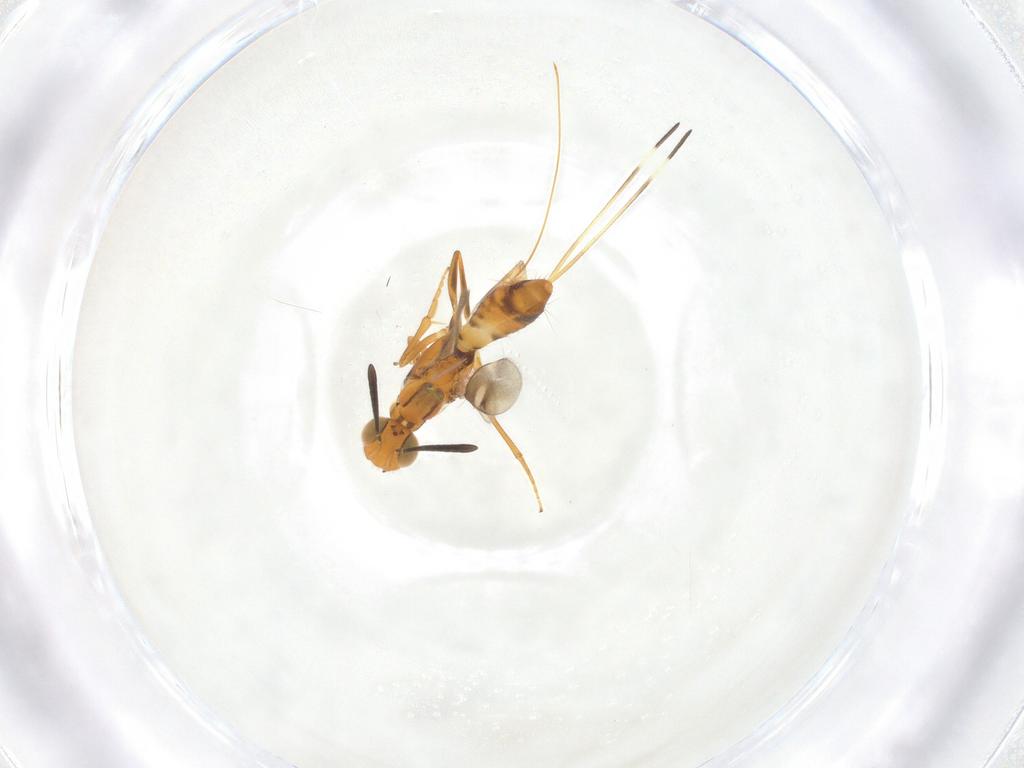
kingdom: Animalia
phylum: Arthropoda
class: Insecta
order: Hymenoptera
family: Eupelmidae
